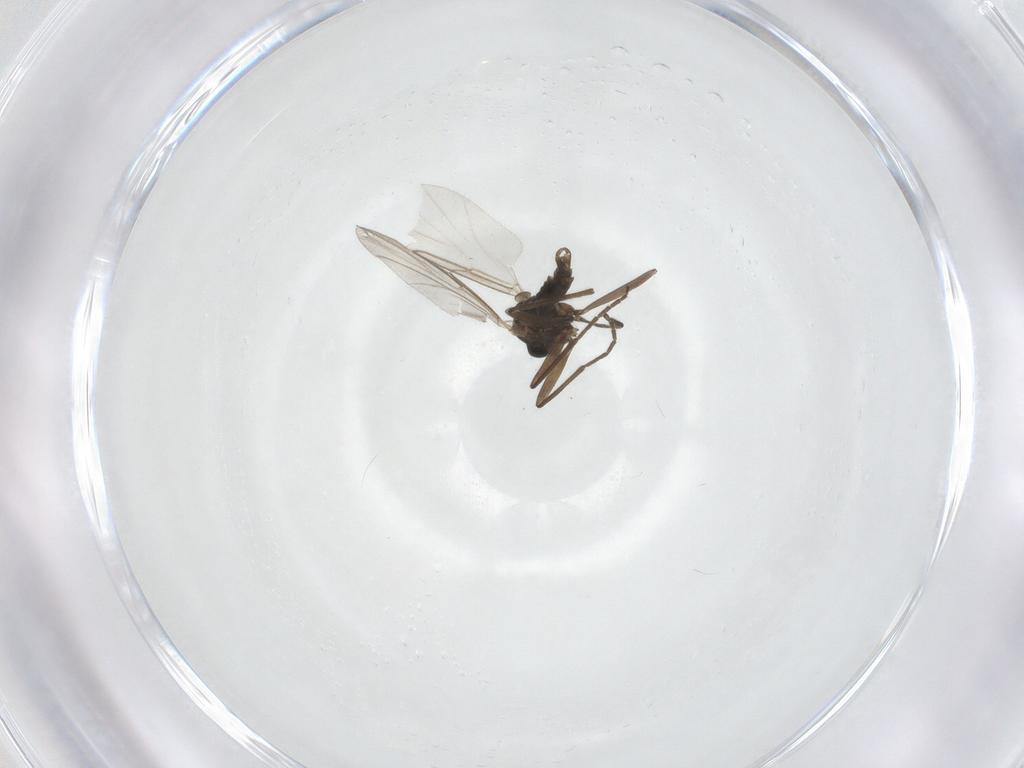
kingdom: Animalia
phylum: Arthropoda
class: Insecta
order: Diptera
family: Cecidomyiidae
